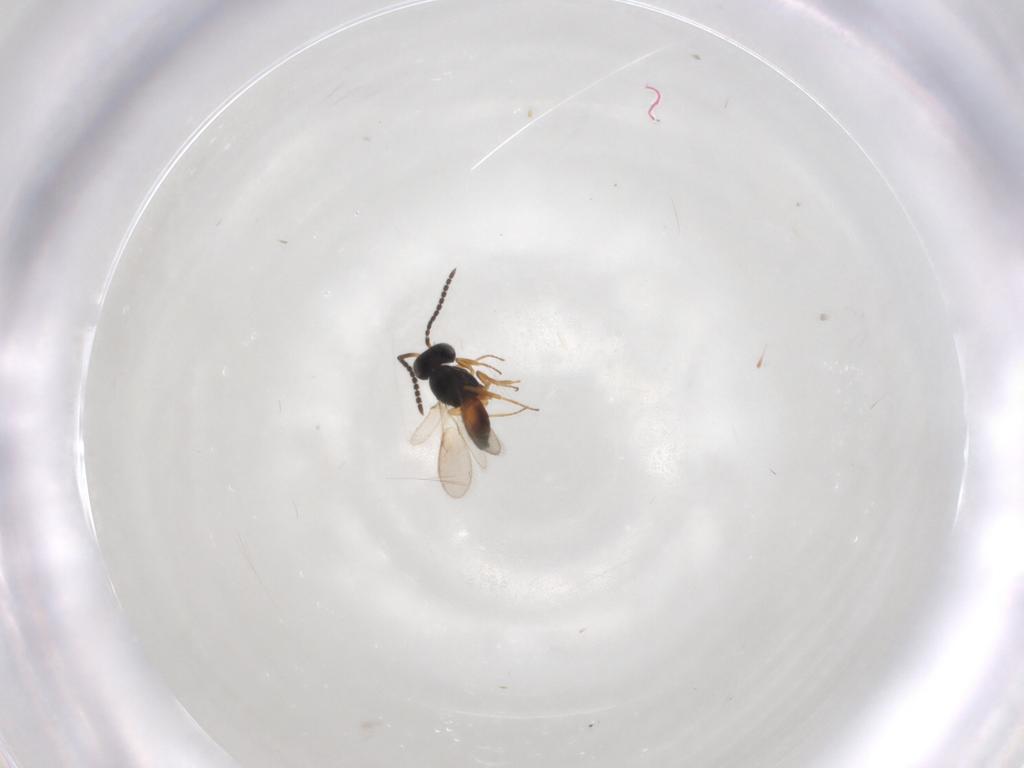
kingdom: Animalia
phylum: Arthropoda
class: Insecta
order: Hymenoptera
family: Scelionidae
